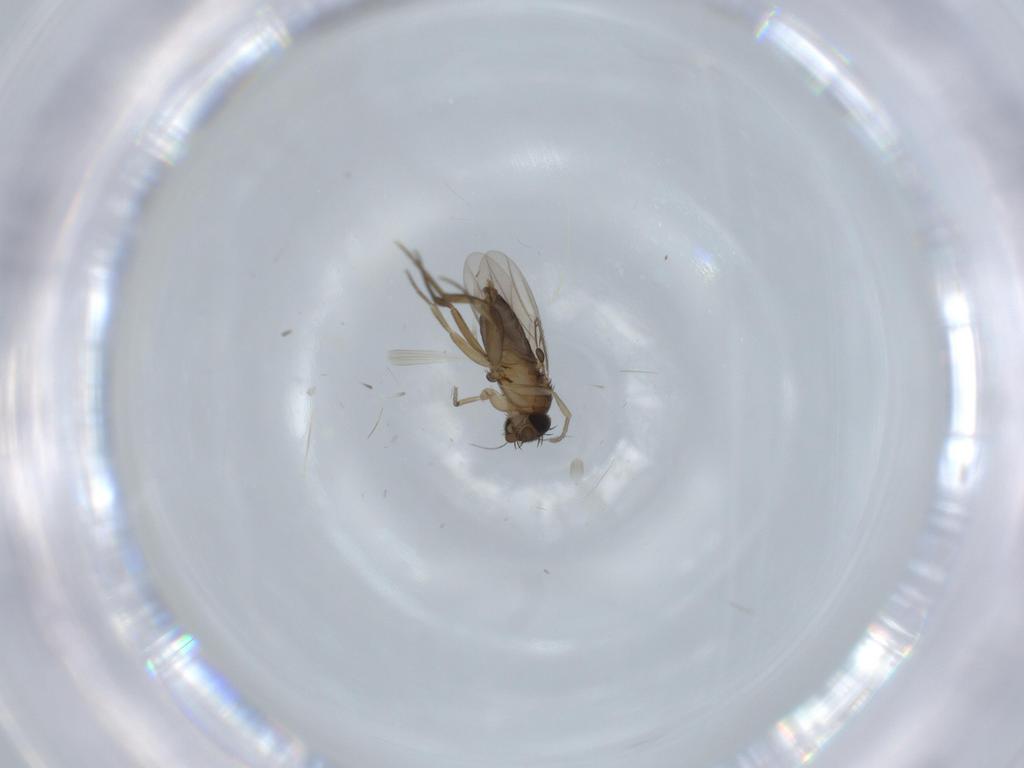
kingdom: Animalia
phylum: Arthropoda
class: Insecta
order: Diptera
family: Phoridae
